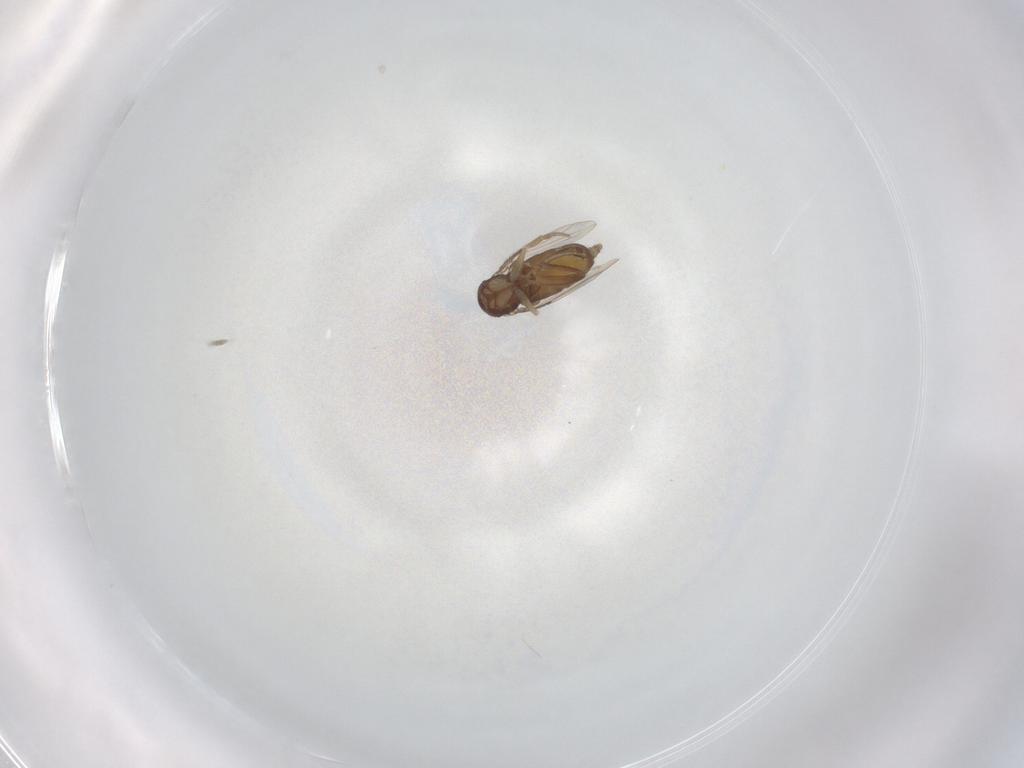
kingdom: Animalia
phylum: Arthropoda
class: Insecta
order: Diptera
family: Phoridae
